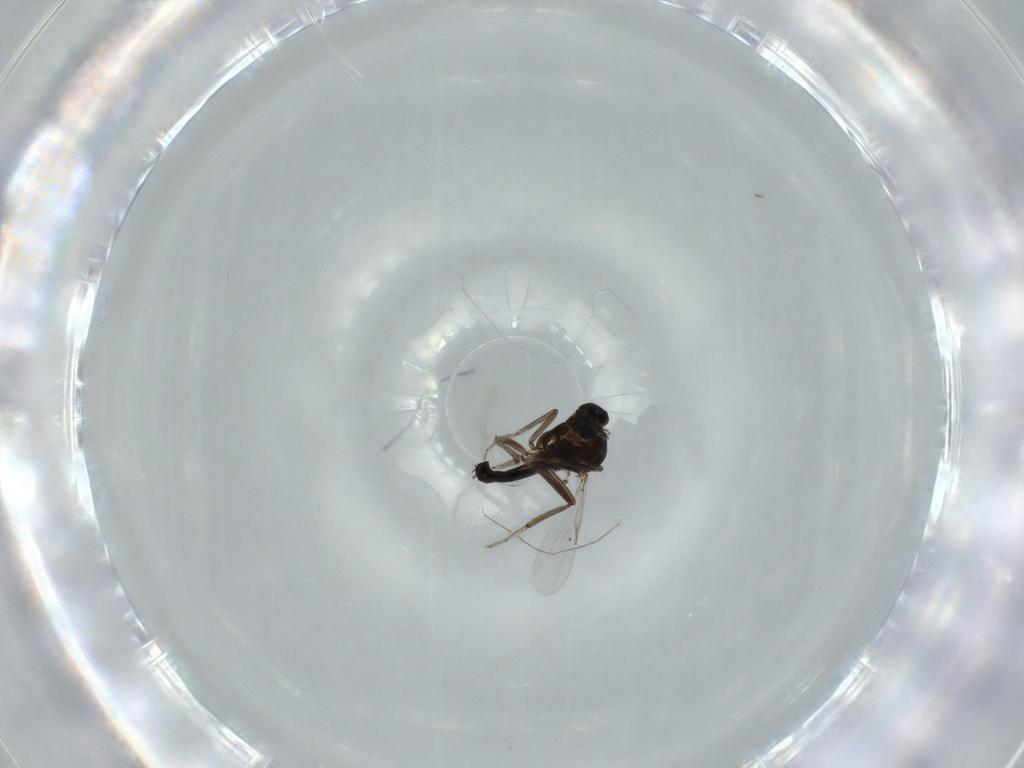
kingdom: Animalia
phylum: Arthropoda
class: Insecta
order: Diptera
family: Ceratopogonidae
